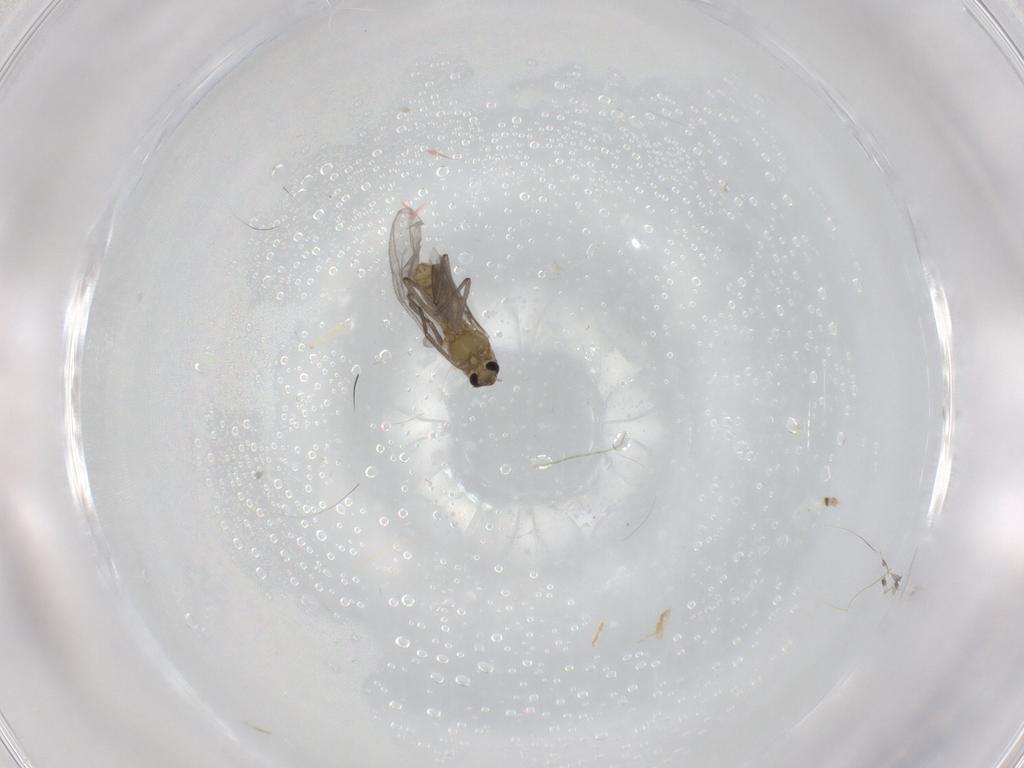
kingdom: Animalia
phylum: Arthropoda
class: Insecta
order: Diptera
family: Chironomidae
